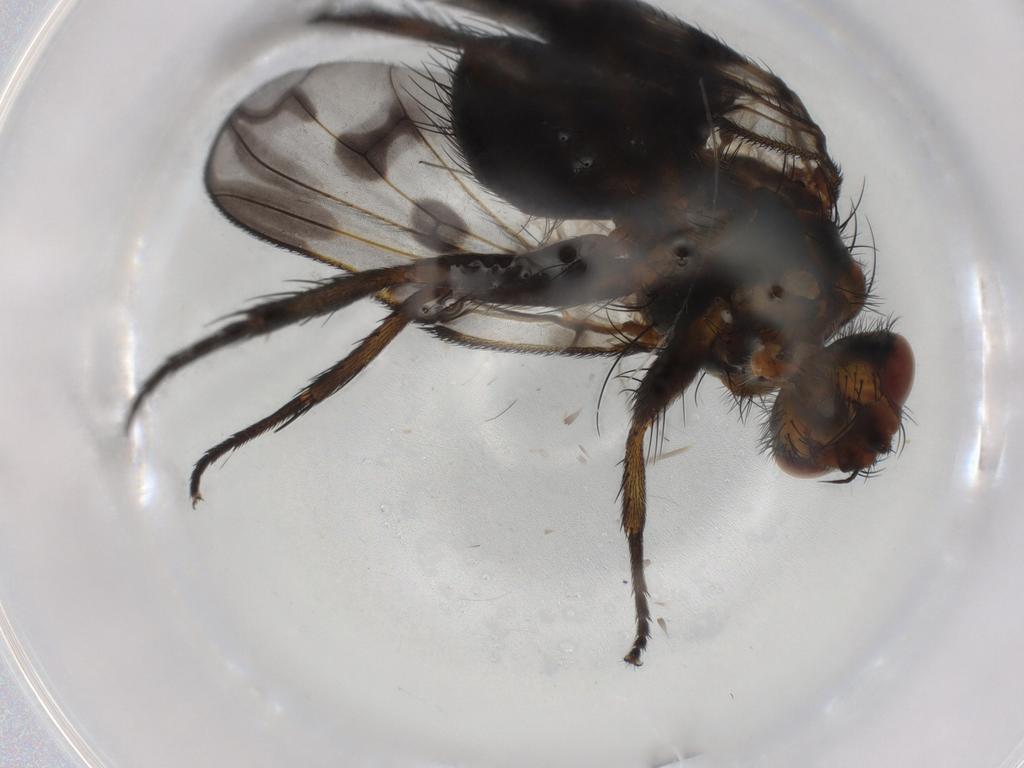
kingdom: Animalia
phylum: Arthropoda
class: Insecta
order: Diptera
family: Chironomidae
